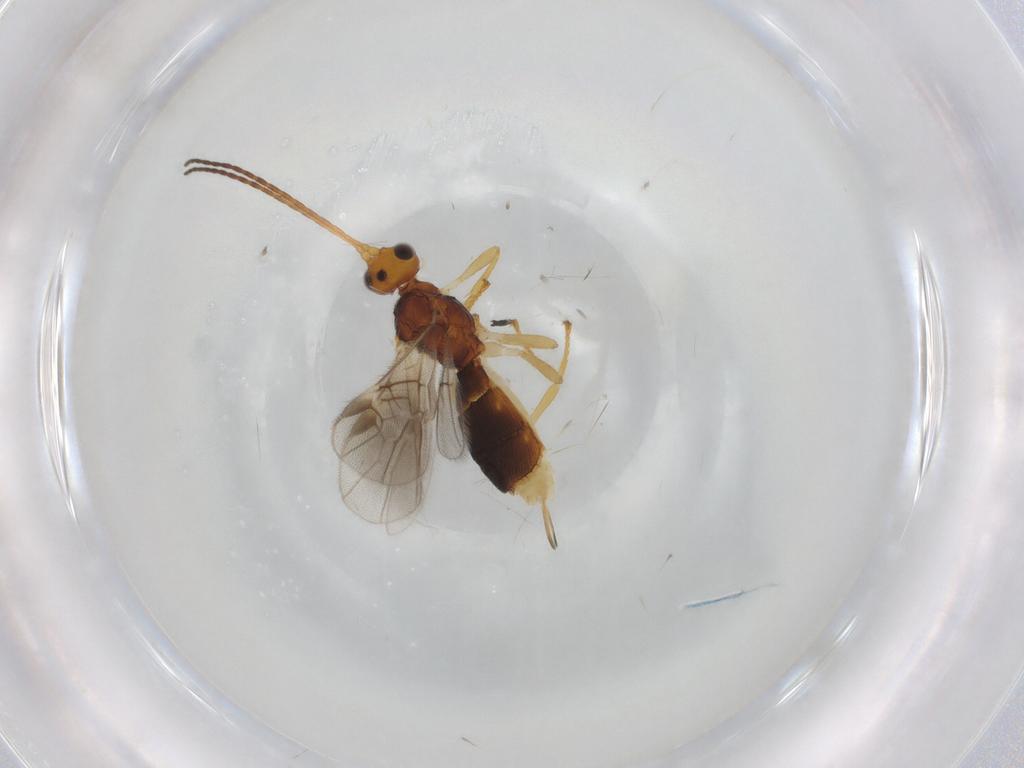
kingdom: Animalia
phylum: Arthropoda
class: Insecta
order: Hymenoptera
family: Braconidae
